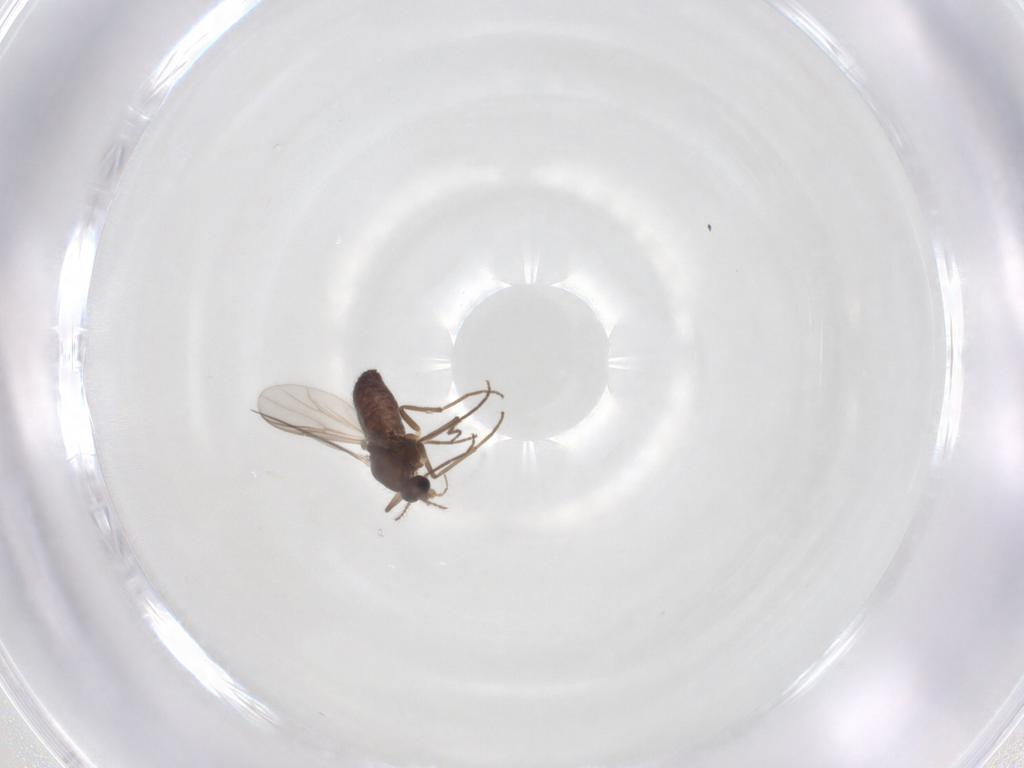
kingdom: Animalia
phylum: Arthropoda
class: Insecta
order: Diptera
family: Chironomidae
